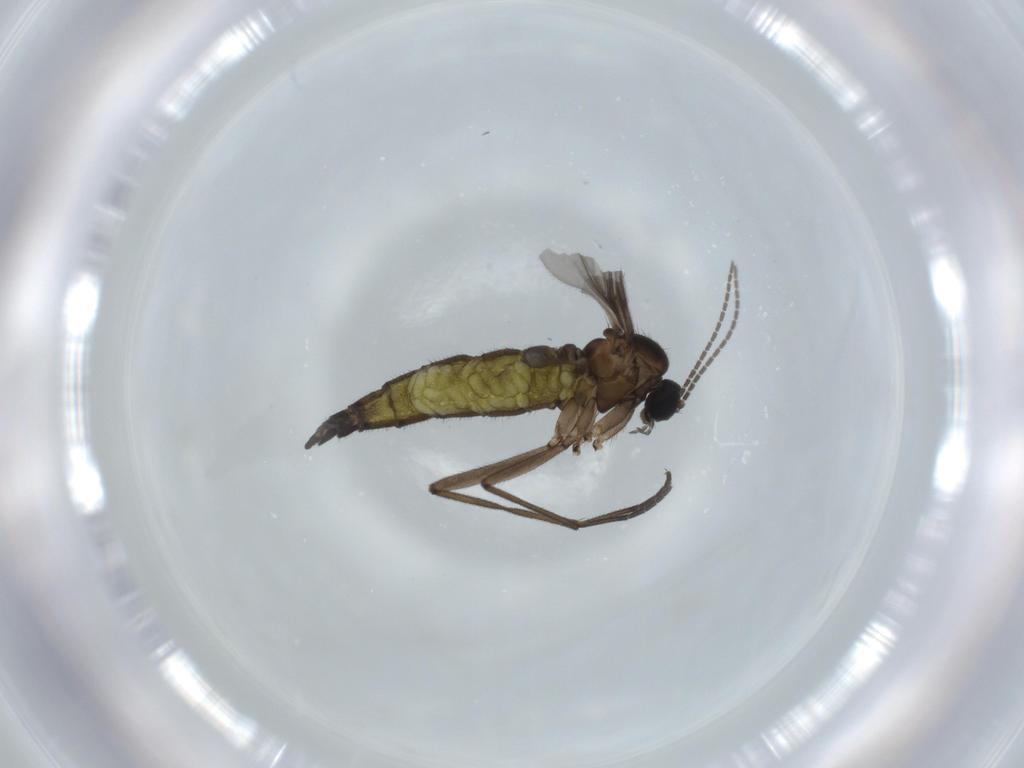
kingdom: Animalia
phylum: Arthropoda
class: Insecta
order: Diptera
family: Sciaridae
